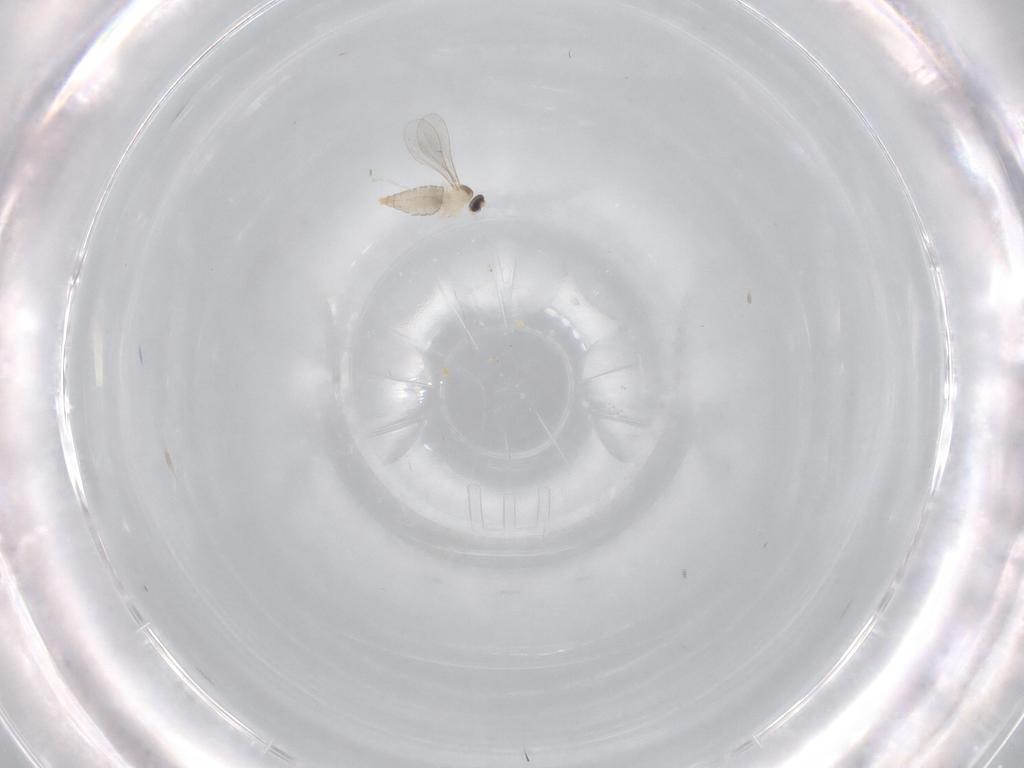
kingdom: Animalia
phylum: Arthropoda
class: Insecta
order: Diptera
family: Cecidomyiidae
